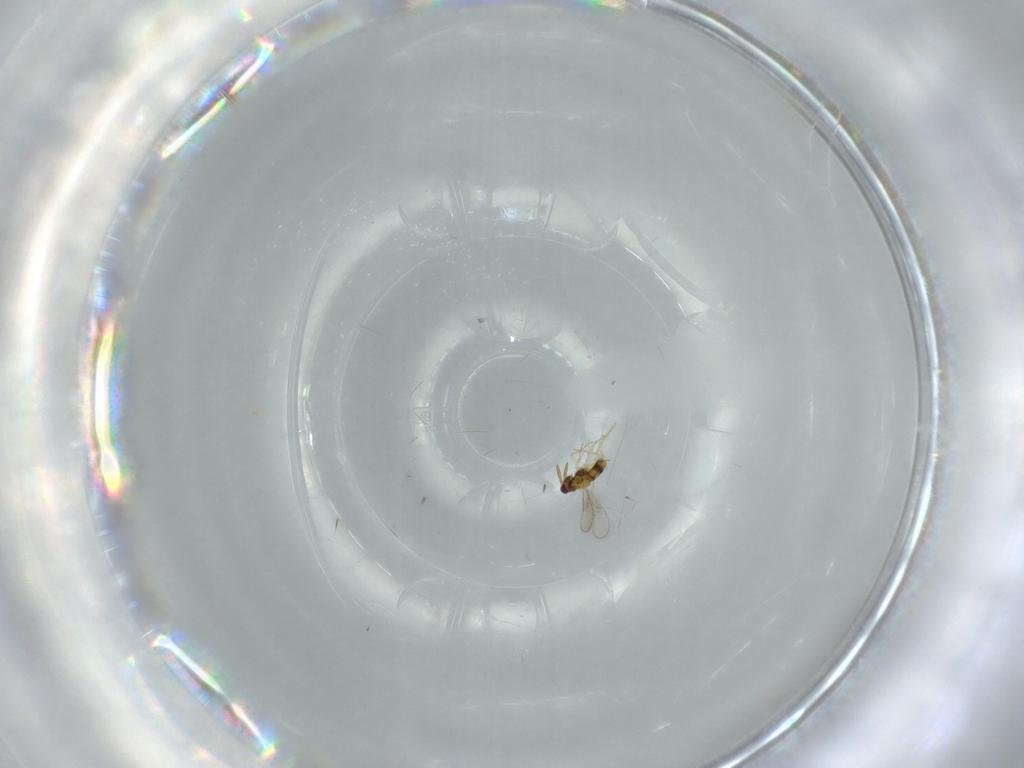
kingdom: Animalia
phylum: Arthropoda
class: Insecta
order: Hymenoptera
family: Aphelinidae
